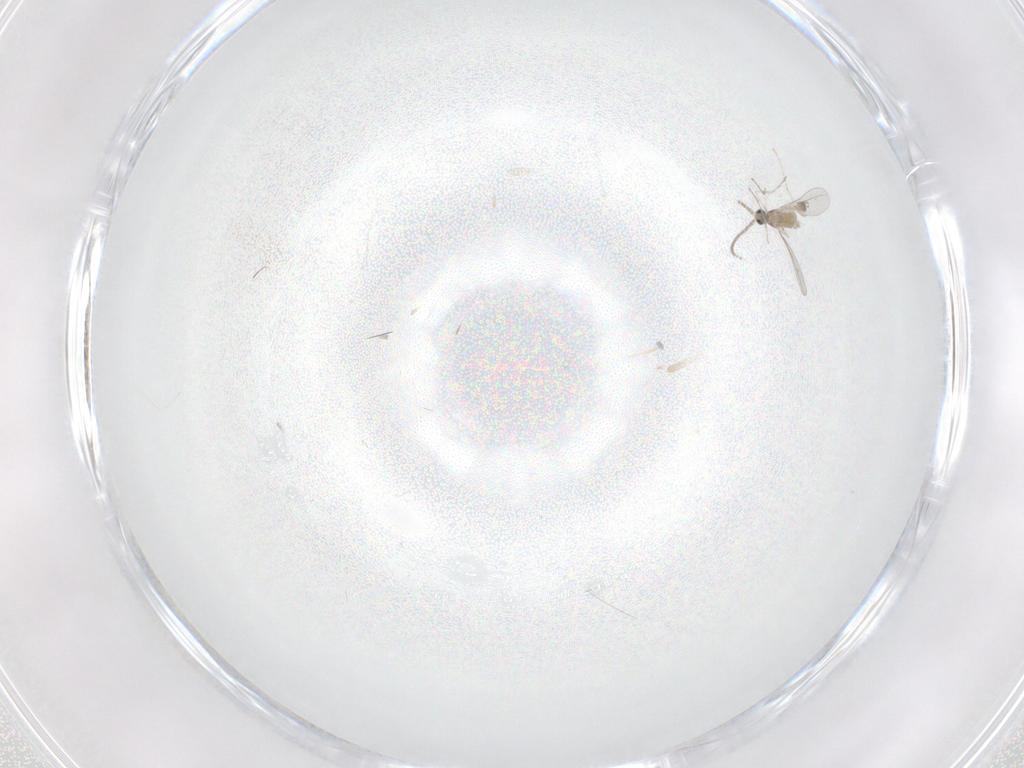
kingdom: Animalia
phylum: Arthropoda
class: Insecta
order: Diptera
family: Cecidomyiidae
